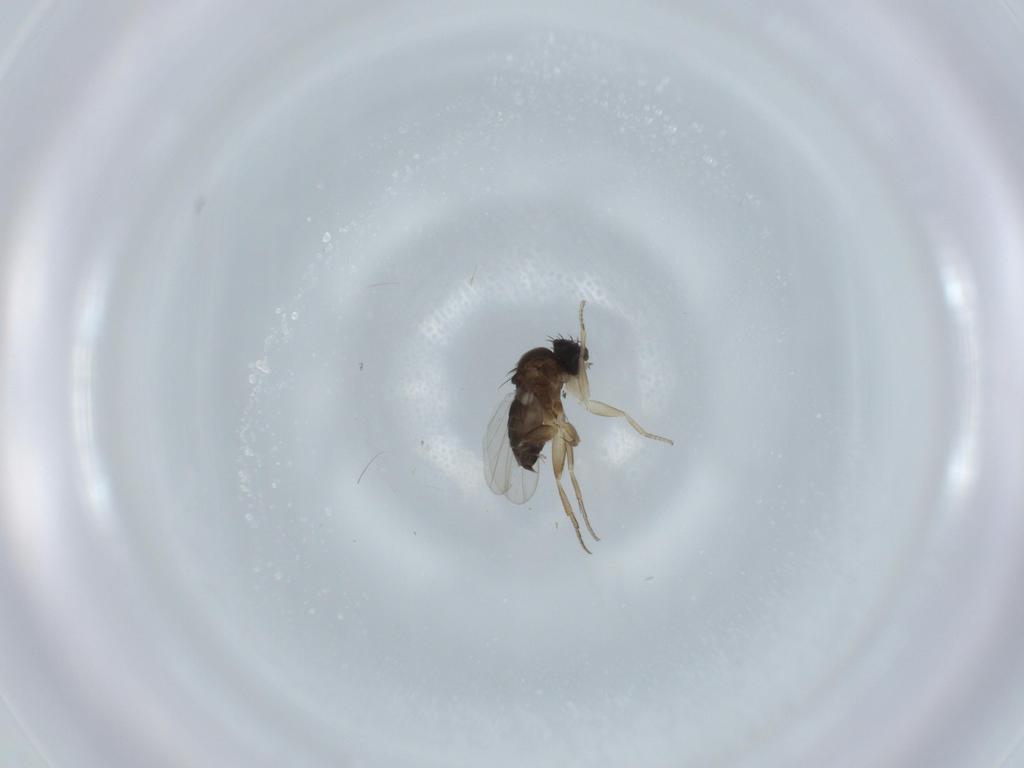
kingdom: Animalia
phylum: Arthropoda
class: Insecta
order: Diptera
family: Phoridae
